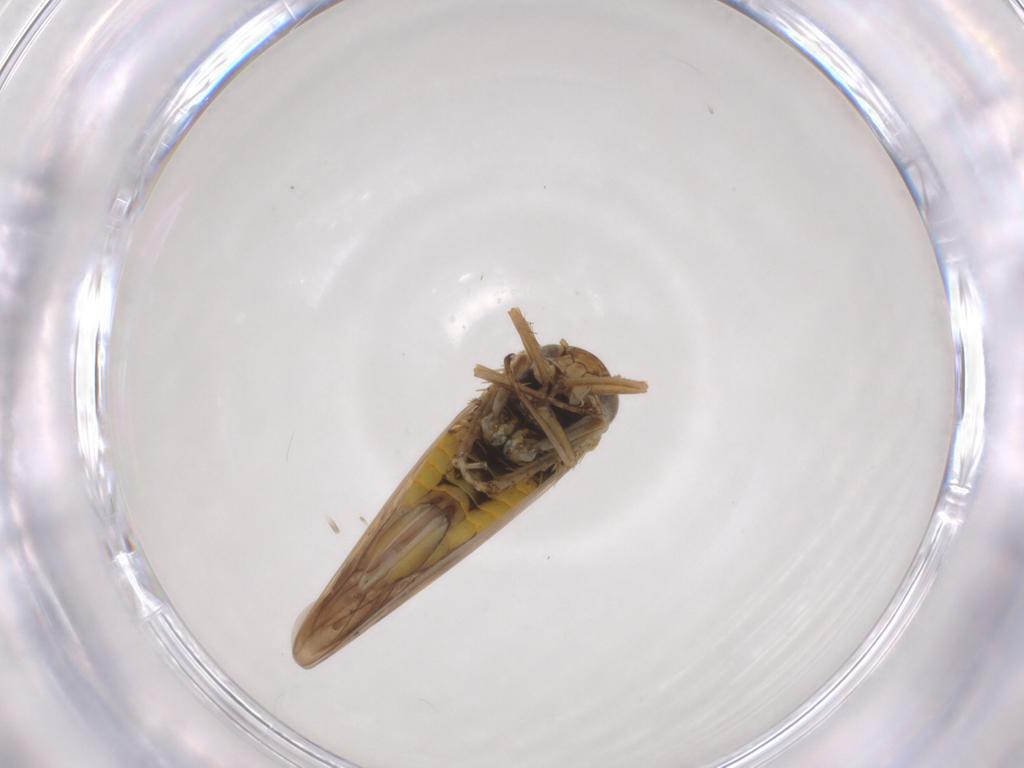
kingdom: Animalia
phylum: Arthropoda
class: Insecta
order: Hemiptera
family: Cicadellidae
